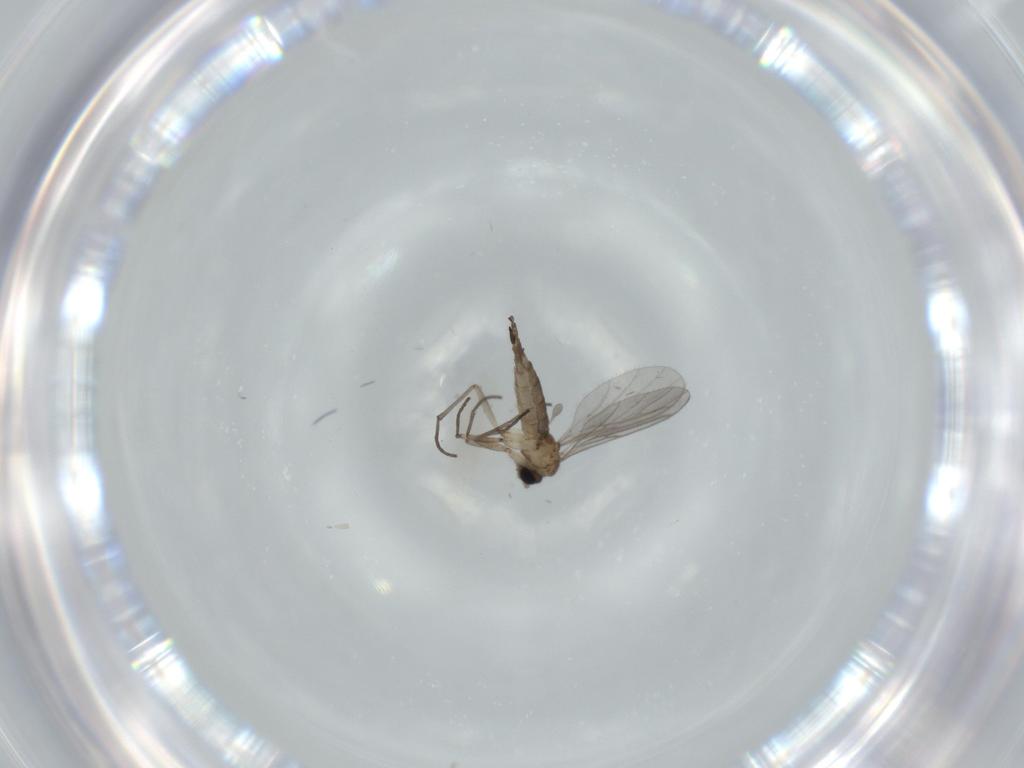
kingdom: Animalia
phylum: Arthropoda
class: Insecta
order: Diptera
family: Sciaridae
